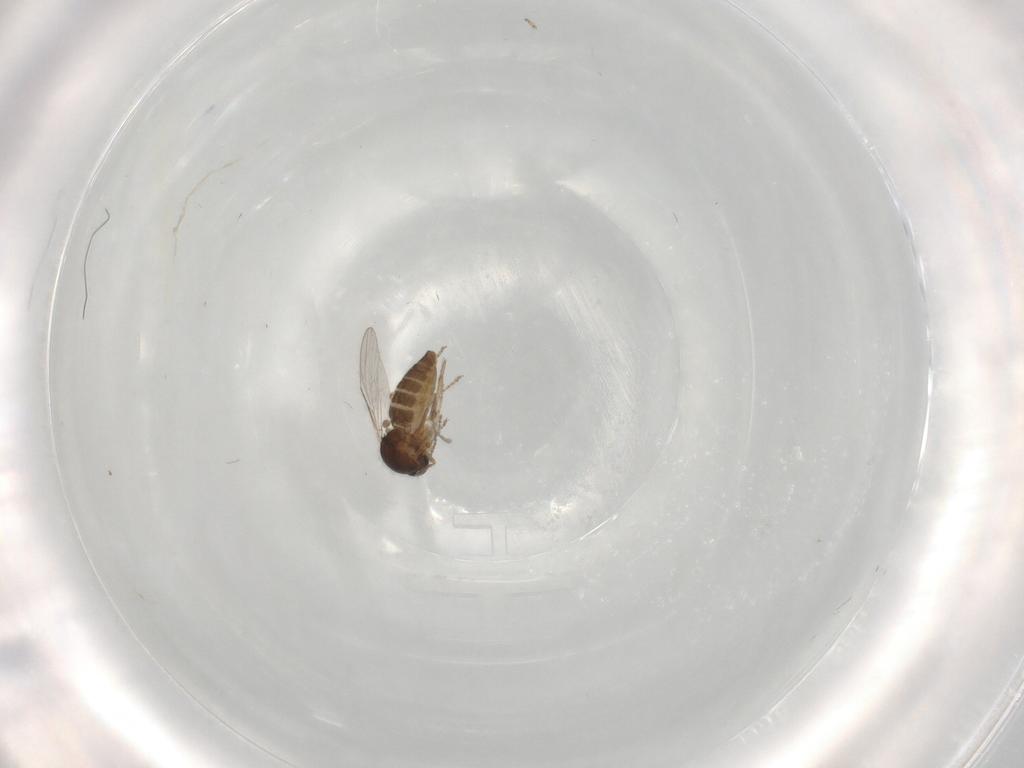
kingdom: Animalia
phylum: Arthropoda
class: Insecta
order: Diptera
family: Ceratopogonidae
